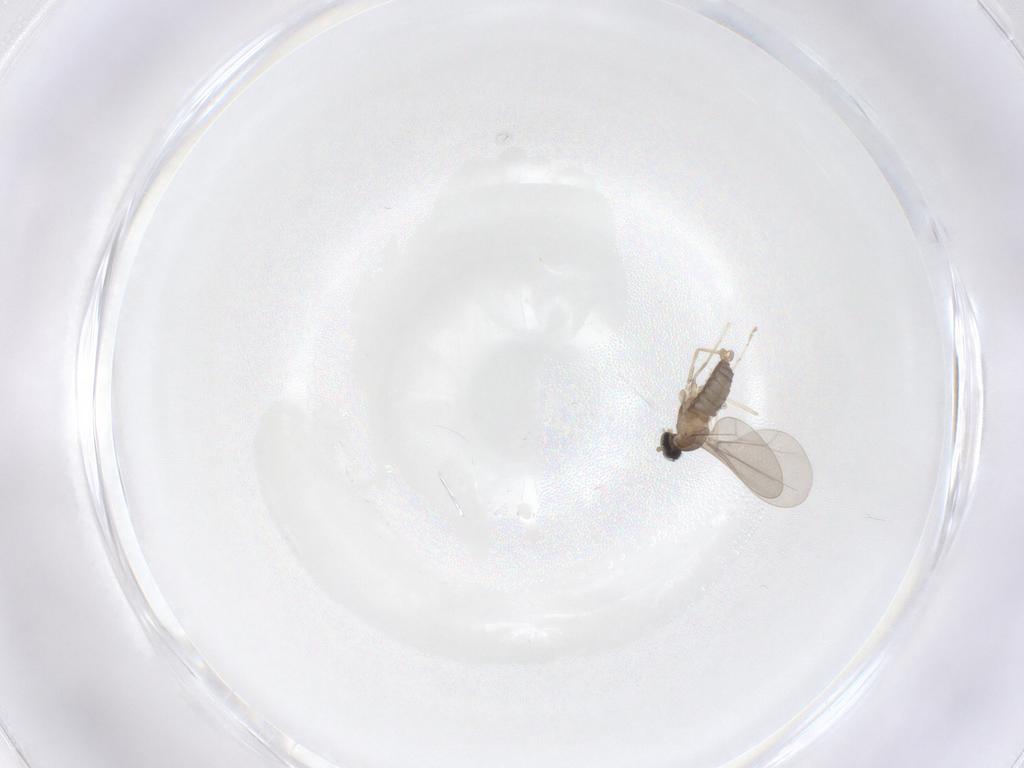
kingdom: Animalia
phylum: Arthropoda
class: Insecta
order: Diptera
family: Cecidomyiidae
